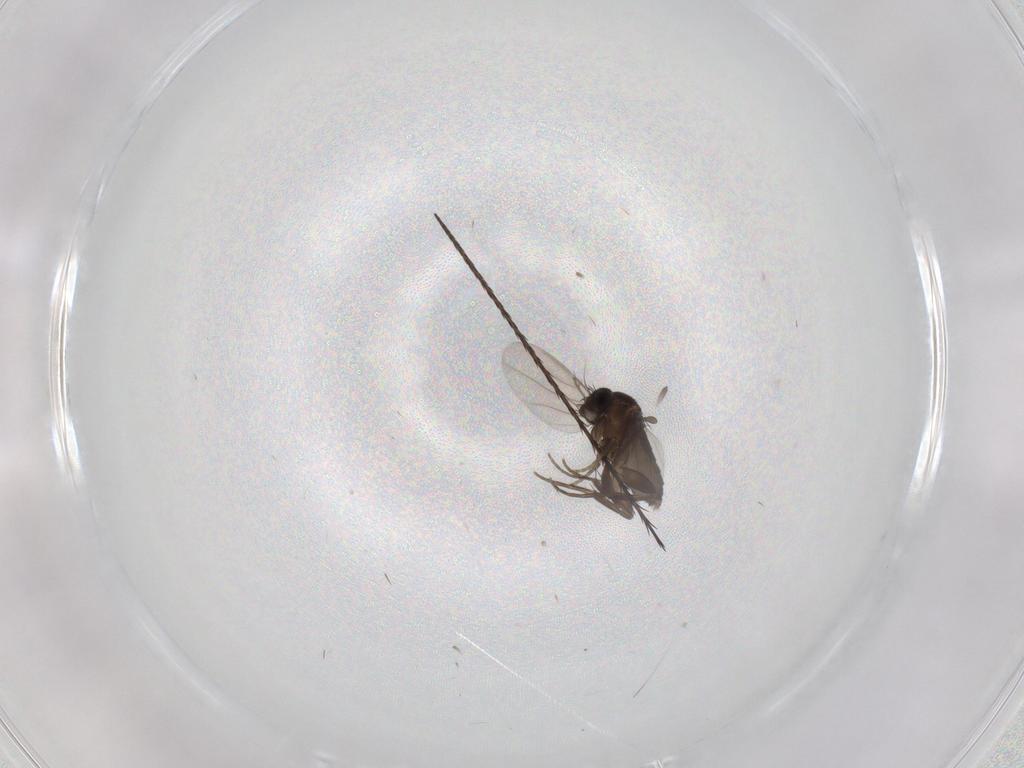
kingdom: Animalia
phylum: Arthropoda
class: Insecta
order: Diptera
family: Phoridae
